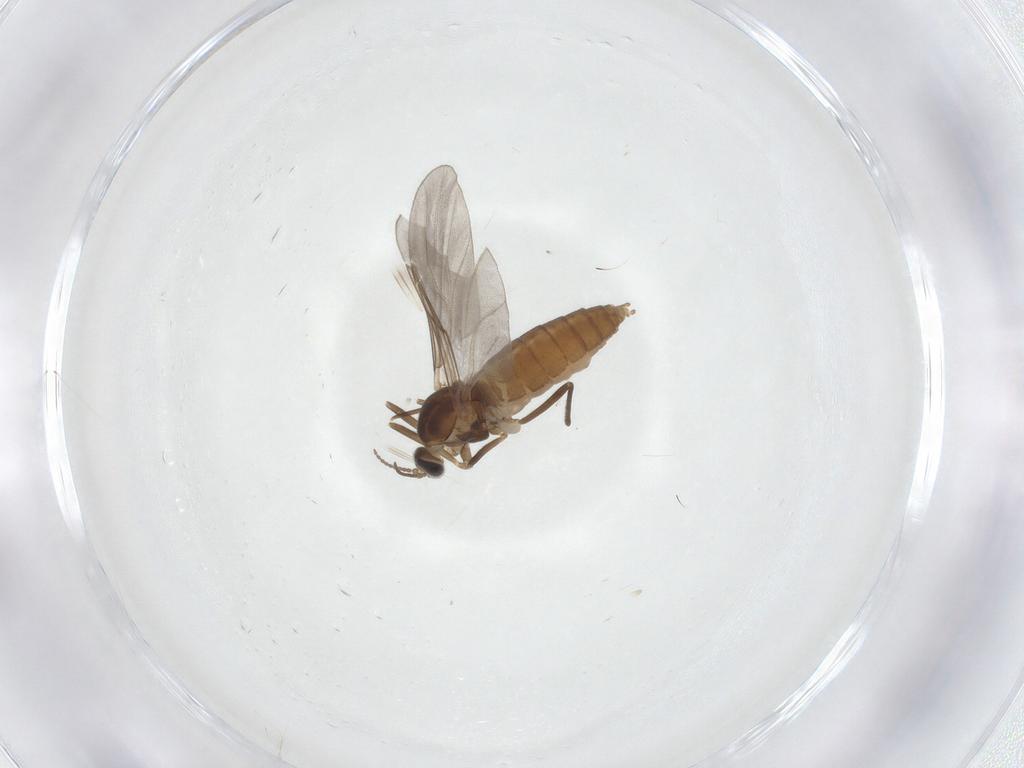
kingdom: Animalia
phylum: Arthropoda
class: Insecta
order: Diptera
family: Cecidomyiidae
